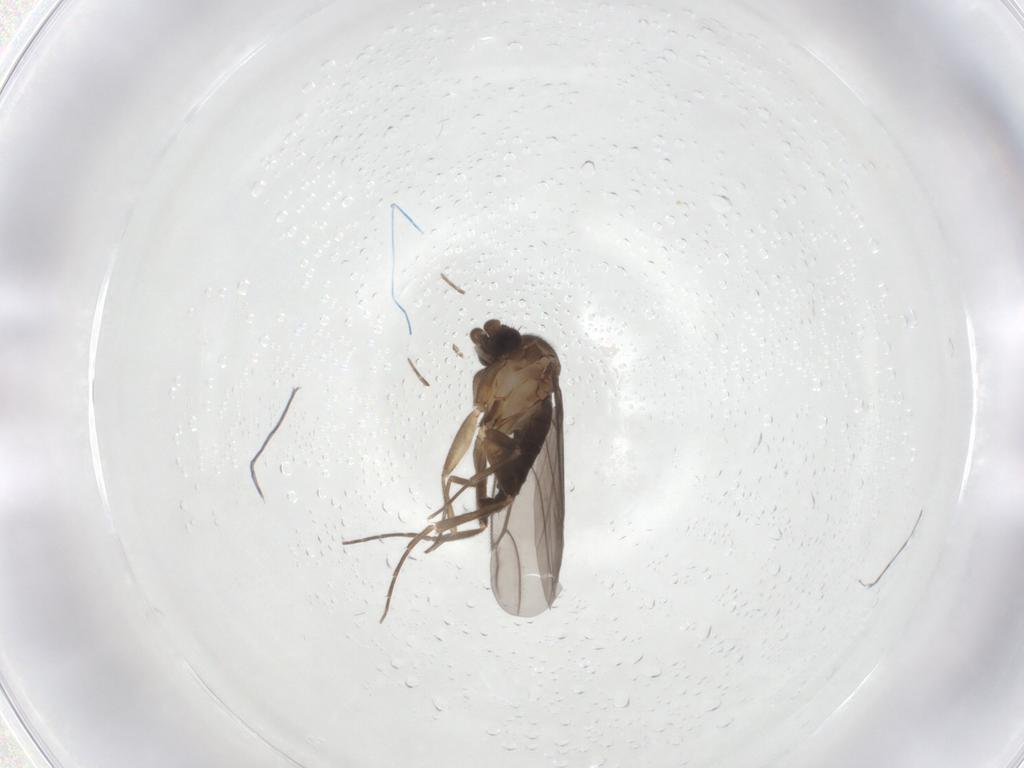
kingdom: Animalia
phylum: Arthropoda
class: Insecta
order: Diptera
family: Phoridae
